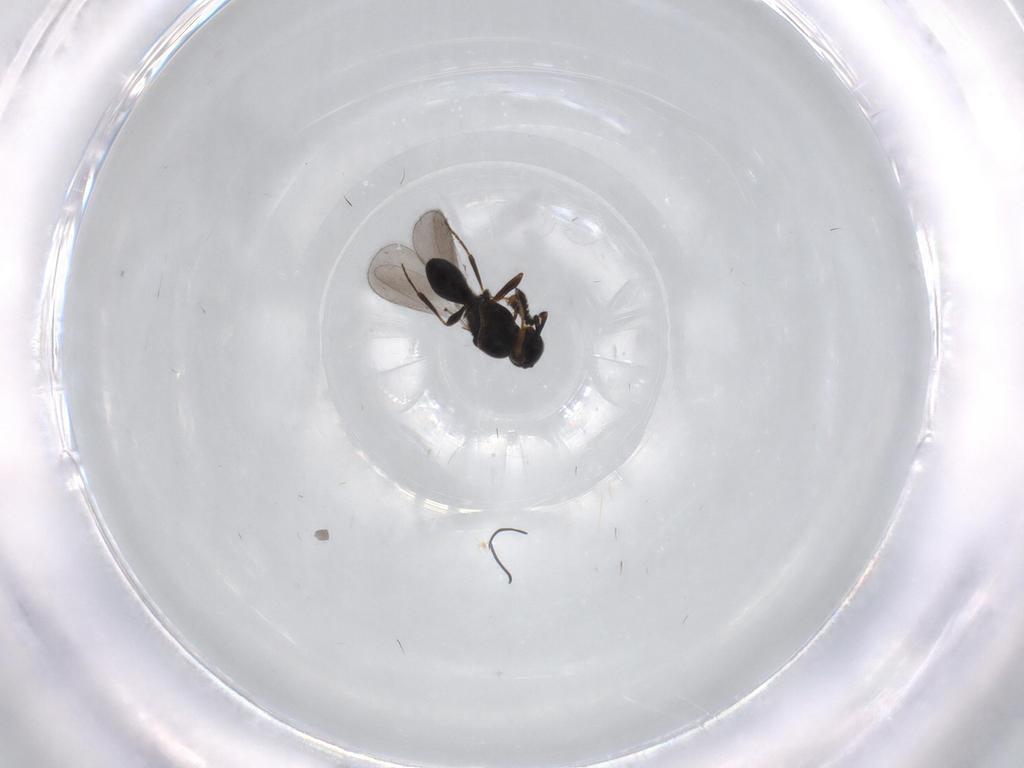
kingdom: Animalia
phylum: Arthropoda
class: Insecta
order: Hymenoptera
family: Platygastridae
